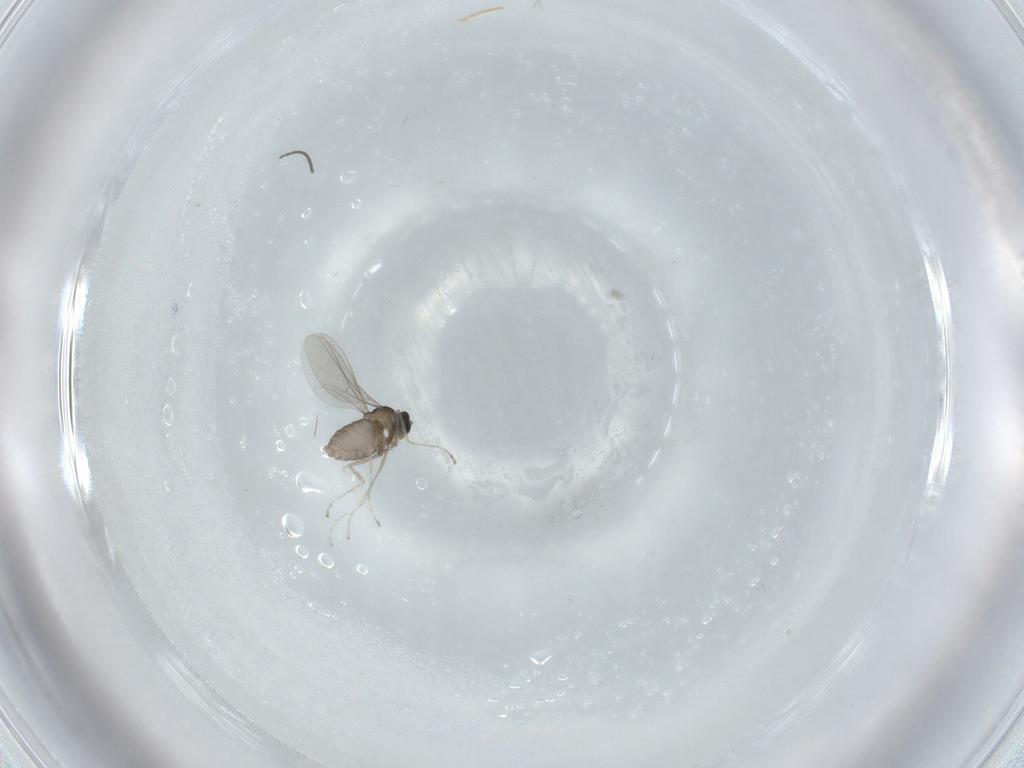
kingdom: Animalia
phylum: Arthropoda
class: Insecta
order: Diptera
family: Cecidomyiidae
